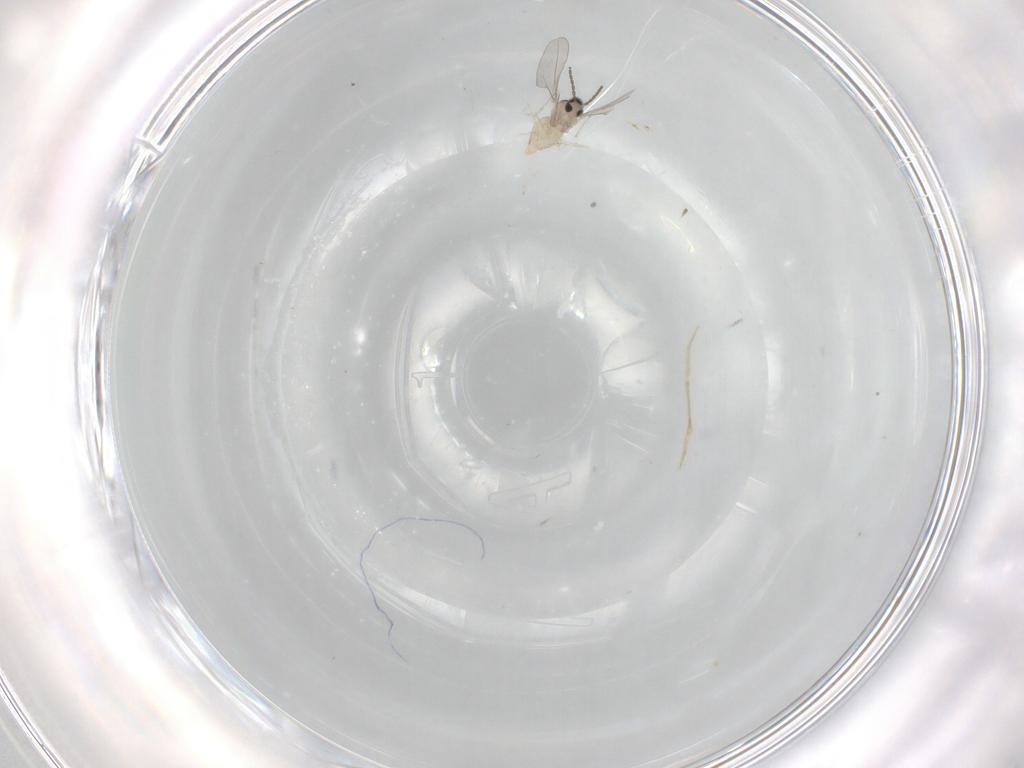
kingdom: Animalia
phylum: Arthropoda
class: Insecta
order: Diptera
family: Cecidomyiidae
